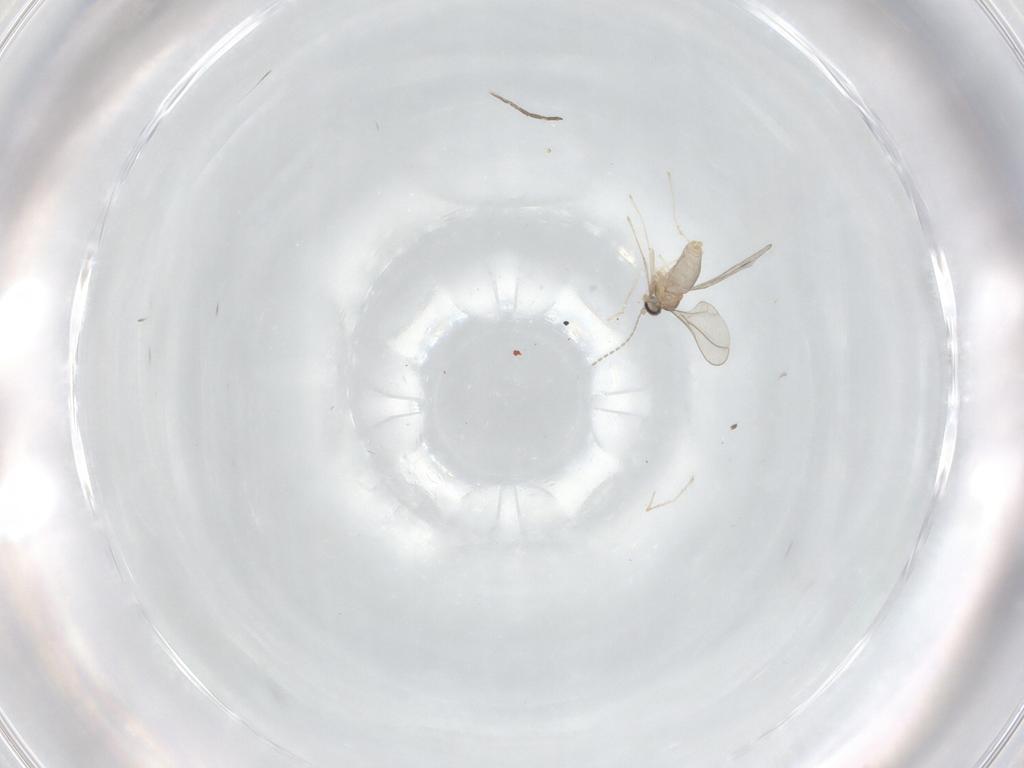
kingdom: Animalia
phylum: Arthropoda
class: Insecta
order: Diptera
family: Cecidomyiidae
